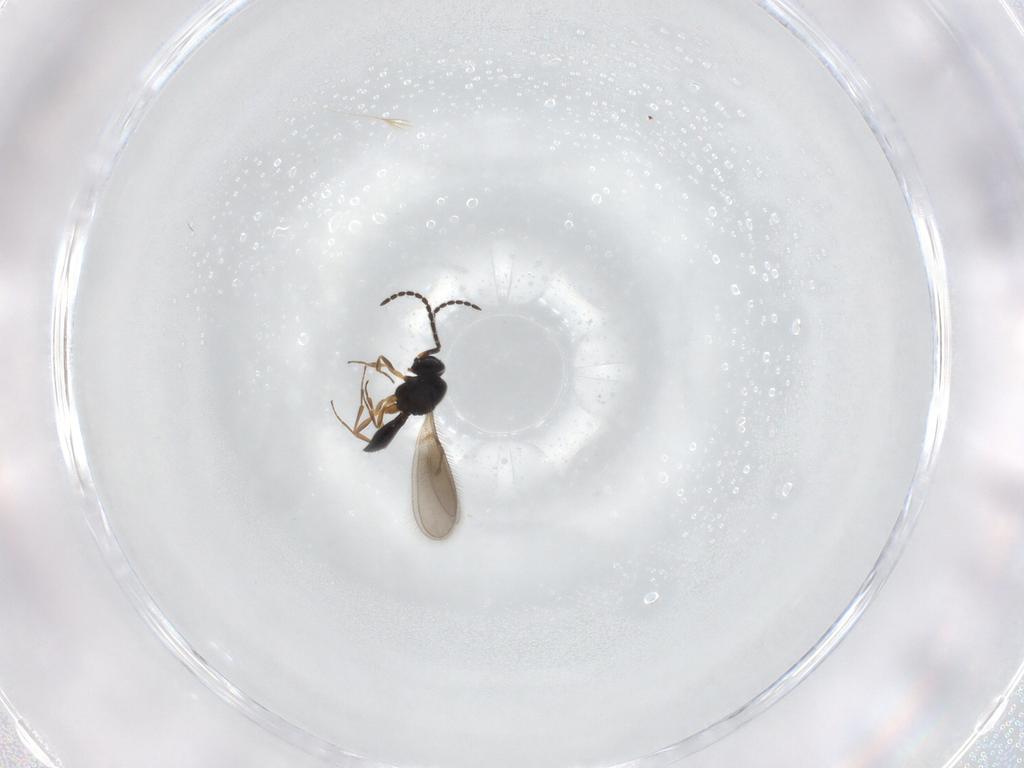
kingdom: Animalia
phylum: Arthropoda
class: Insecta
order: Hymenoptera
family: Scelionidae
